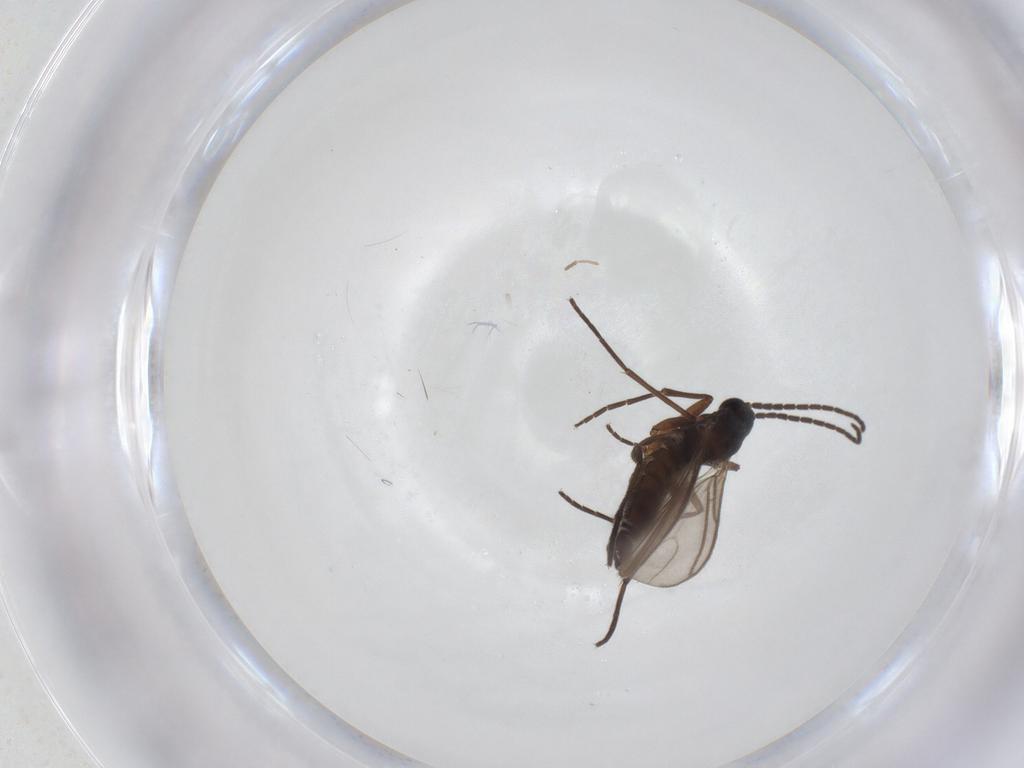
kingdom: Animalia
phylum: Arthropoda
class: Insecta
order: Diptera
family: Sciaridae
